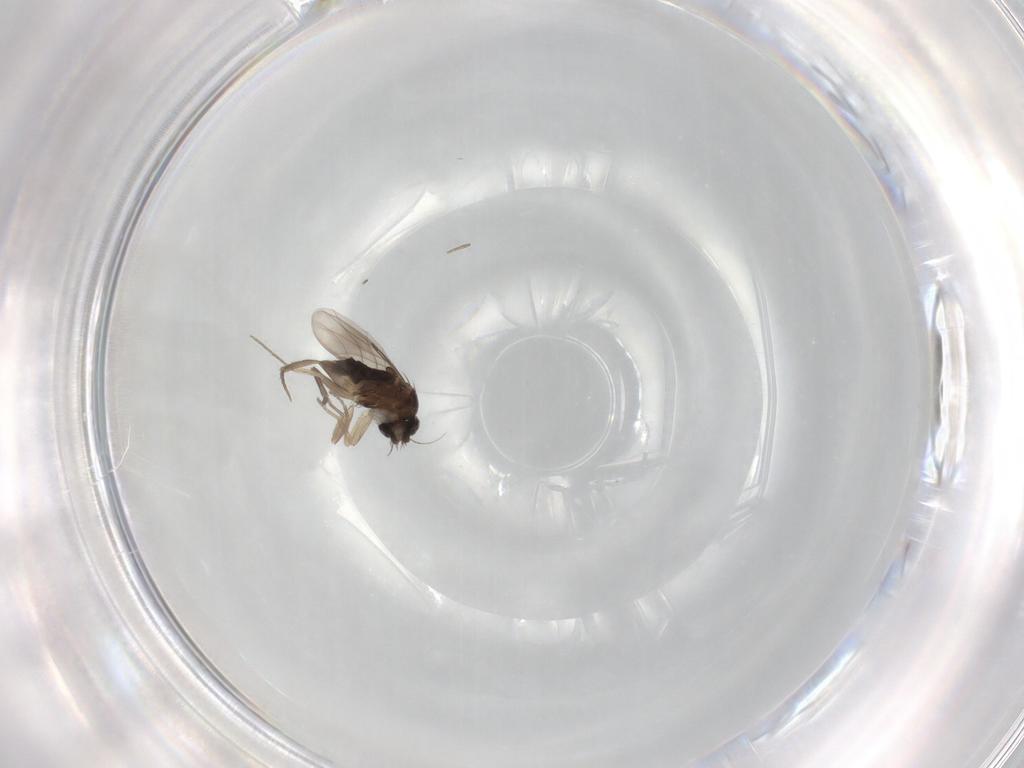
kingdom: Animalia
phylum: Arthropoda
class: Insecta
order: Diptera
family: Phoridae
